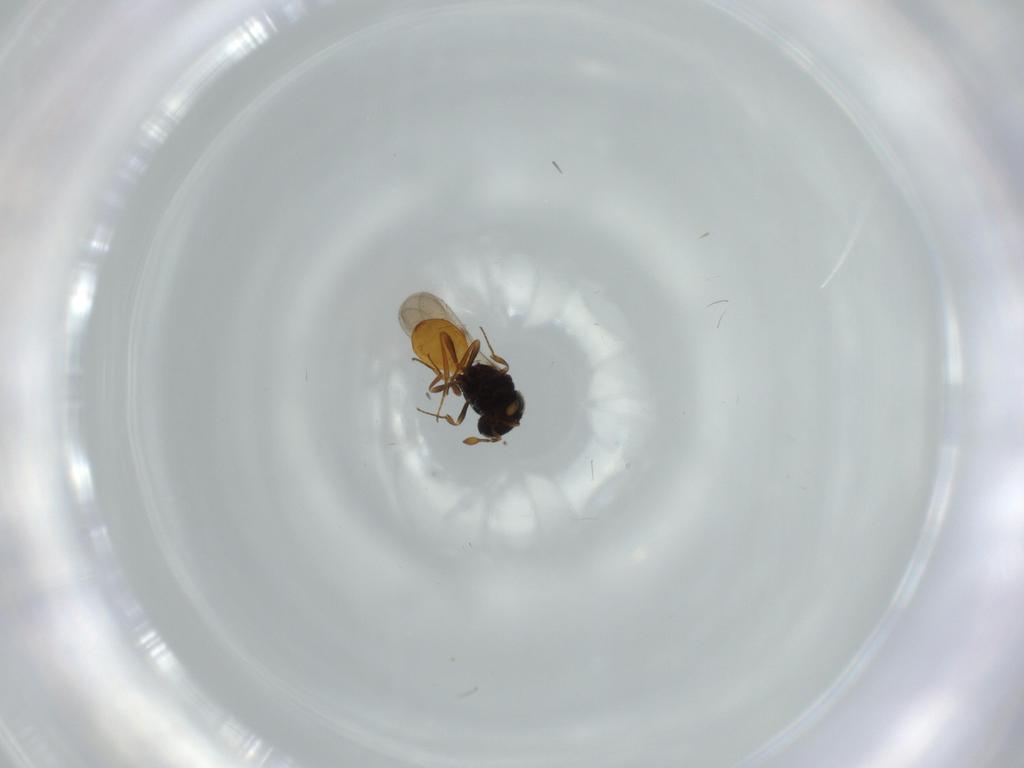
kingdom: Animalia
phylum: Arthropoda
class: Insecta
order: Hymenoptera
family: Scelionidae
